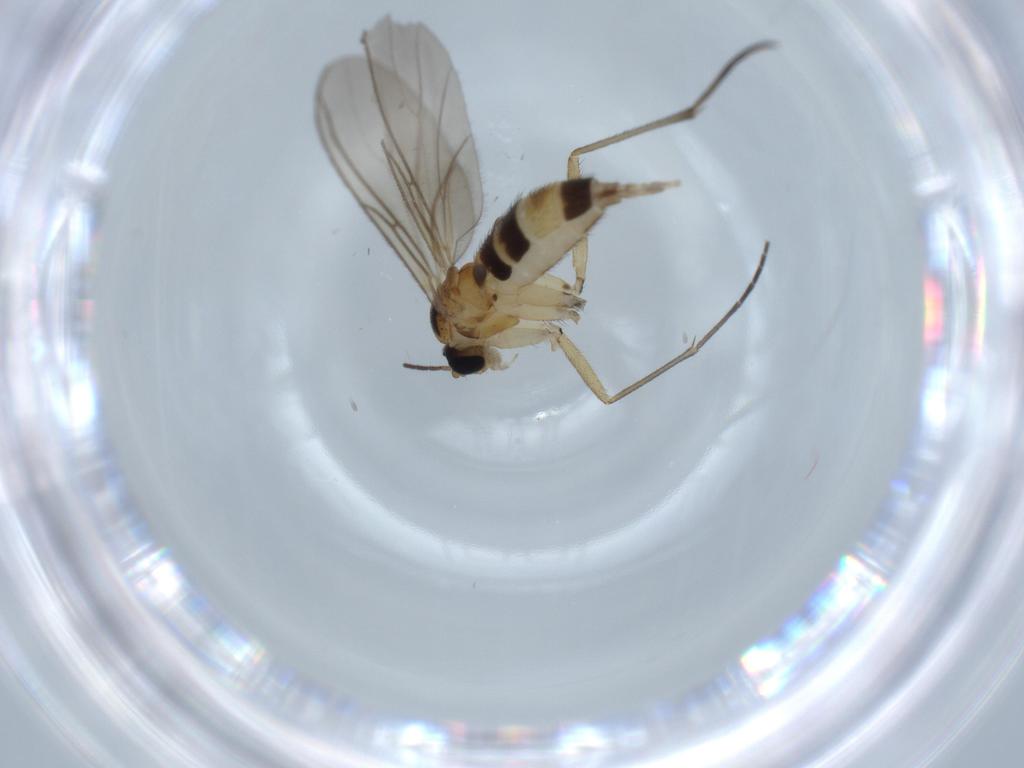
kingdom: Animalia
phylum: Arthropoda
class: Insecta
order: Diptera
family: Sciaridae
